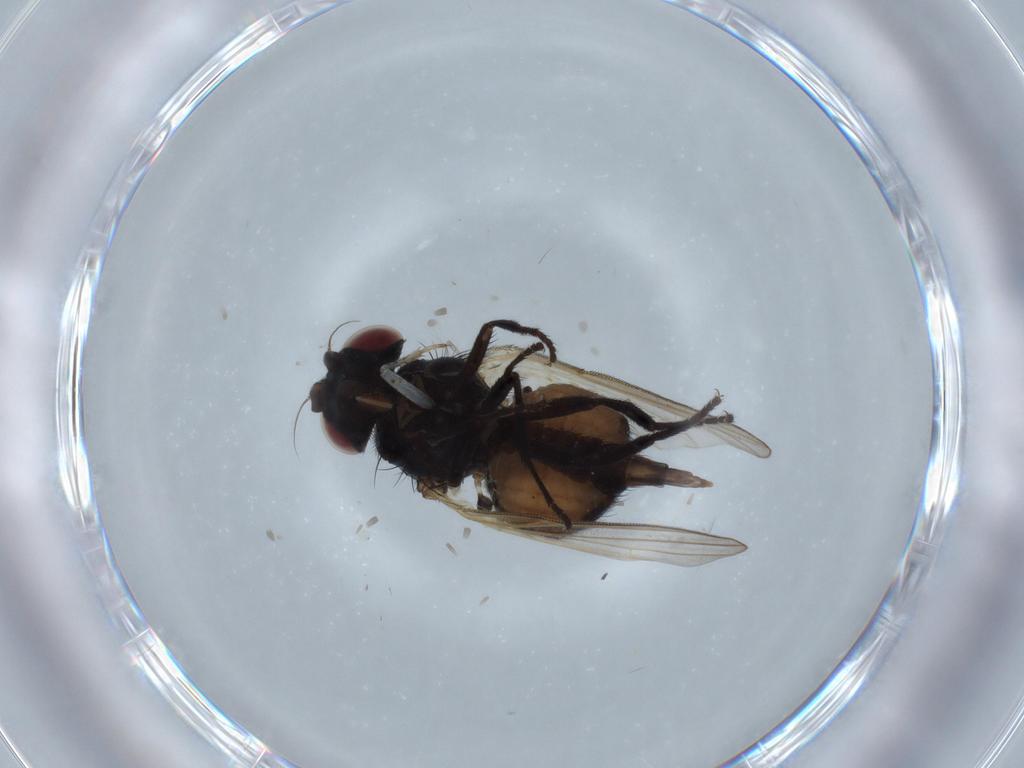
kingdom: Animalia
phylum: Arthropoda
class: Insecta
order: Diptera
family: Lonchaeidae
